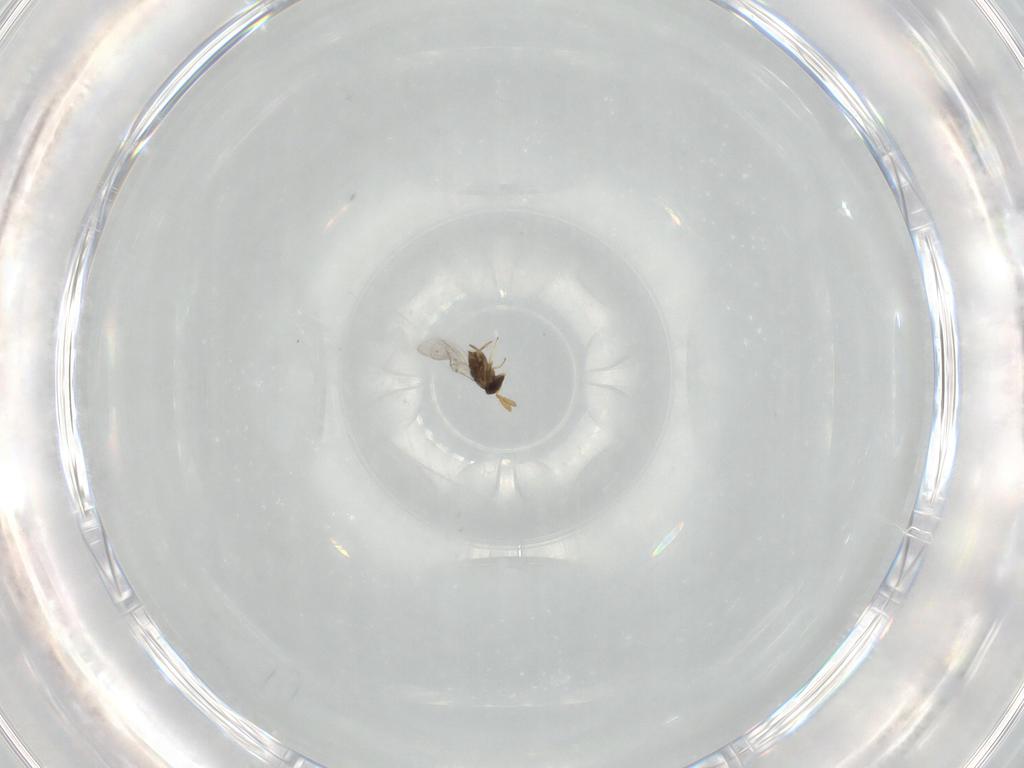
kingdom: Animalia
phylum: Arthropoda
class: Insecta
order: Hymenoptera
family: Encyrtidae
